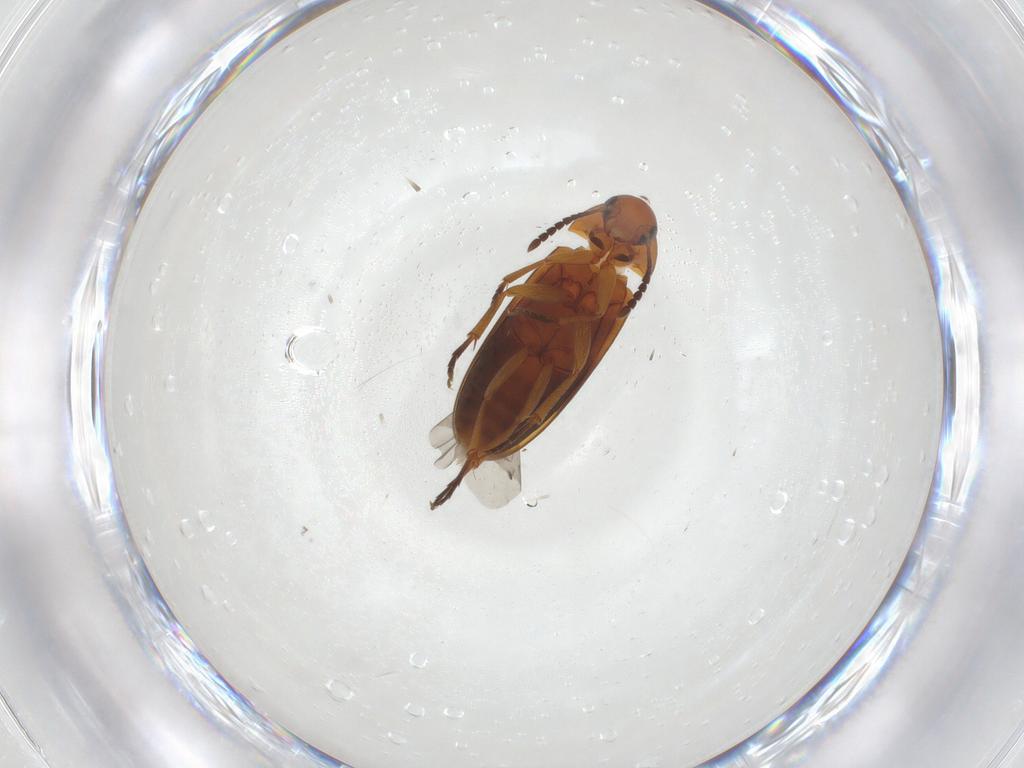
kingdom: Animalia
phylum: Arthropoda
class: Insecta
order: Coleoptera
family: Scraptiidae
